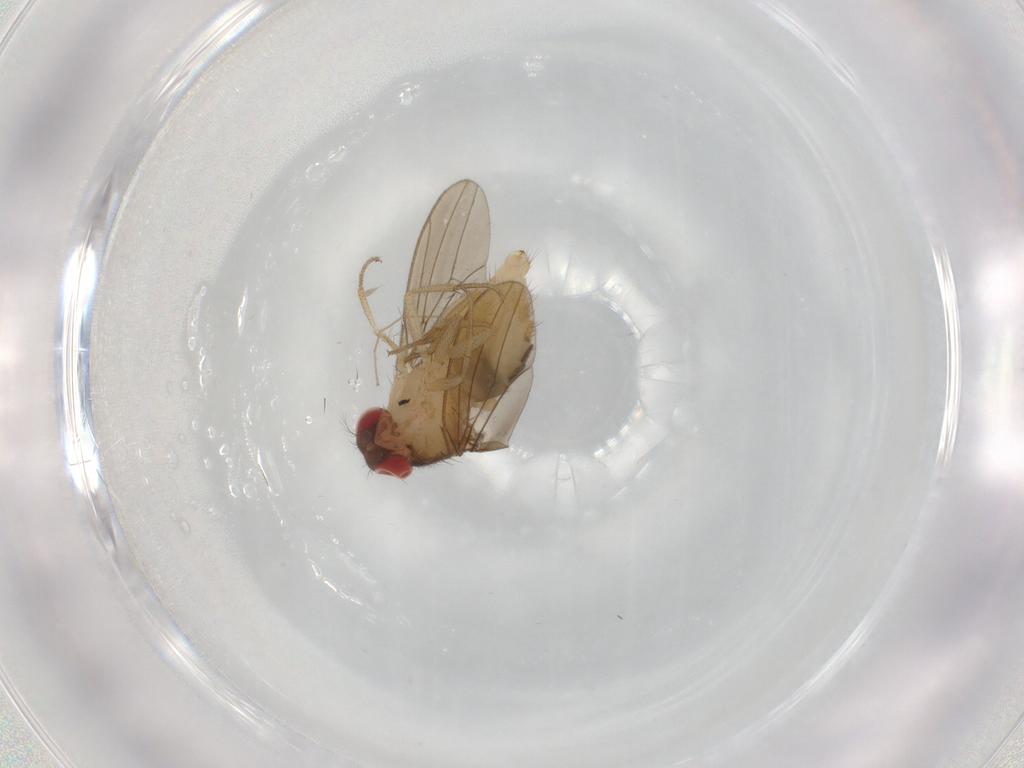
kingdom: Animalia
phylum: Arthropoda
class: Insecta
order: Diptera
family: Drosophilidae
